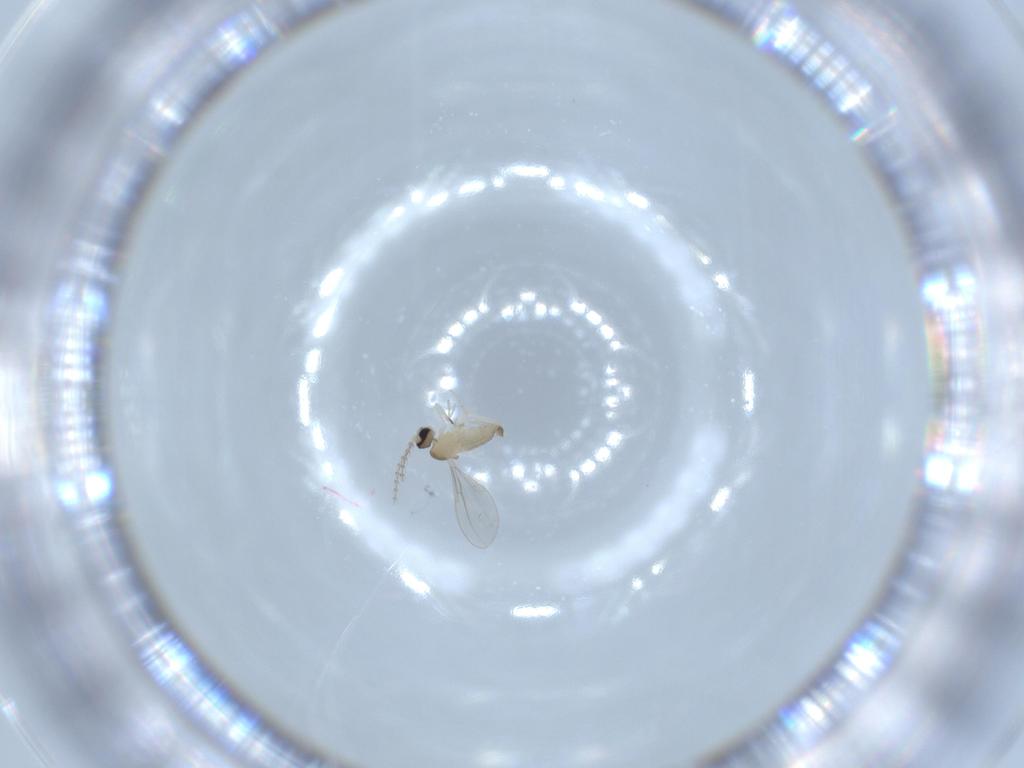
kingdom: Animalia
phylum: Arthropoda
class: Insecta
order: Diptera
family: Cecidomyiidae
